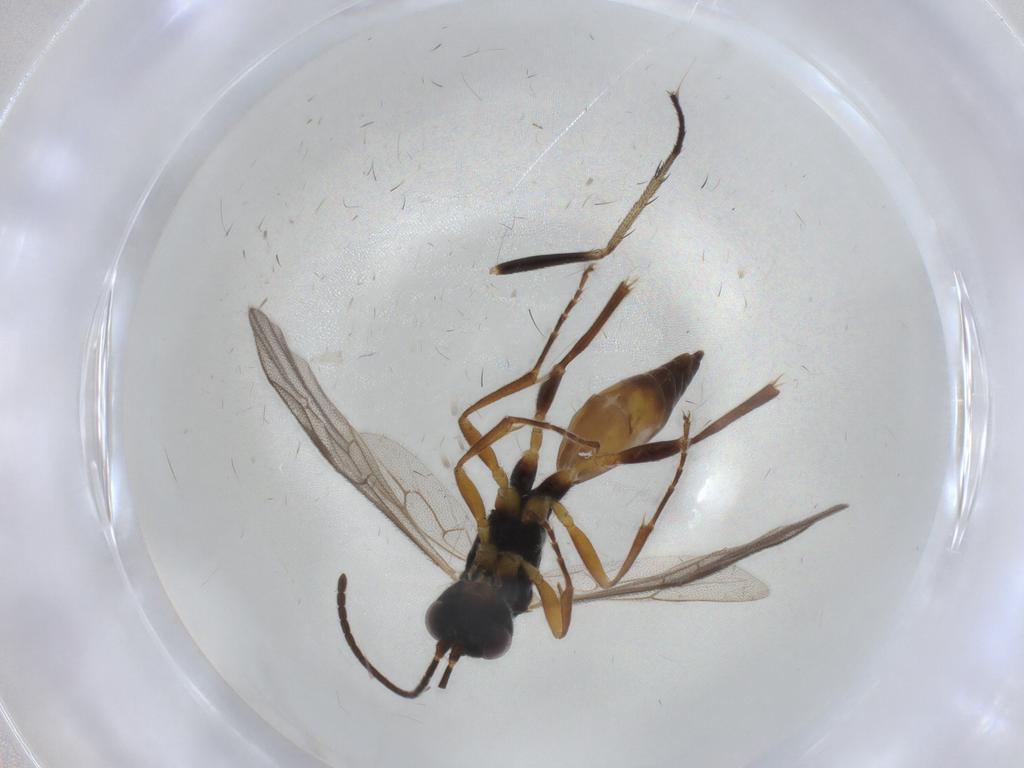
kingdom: Animalia
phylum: Arthropoda
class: Insecta
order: Hymenoptera
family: Ichneumonidae
